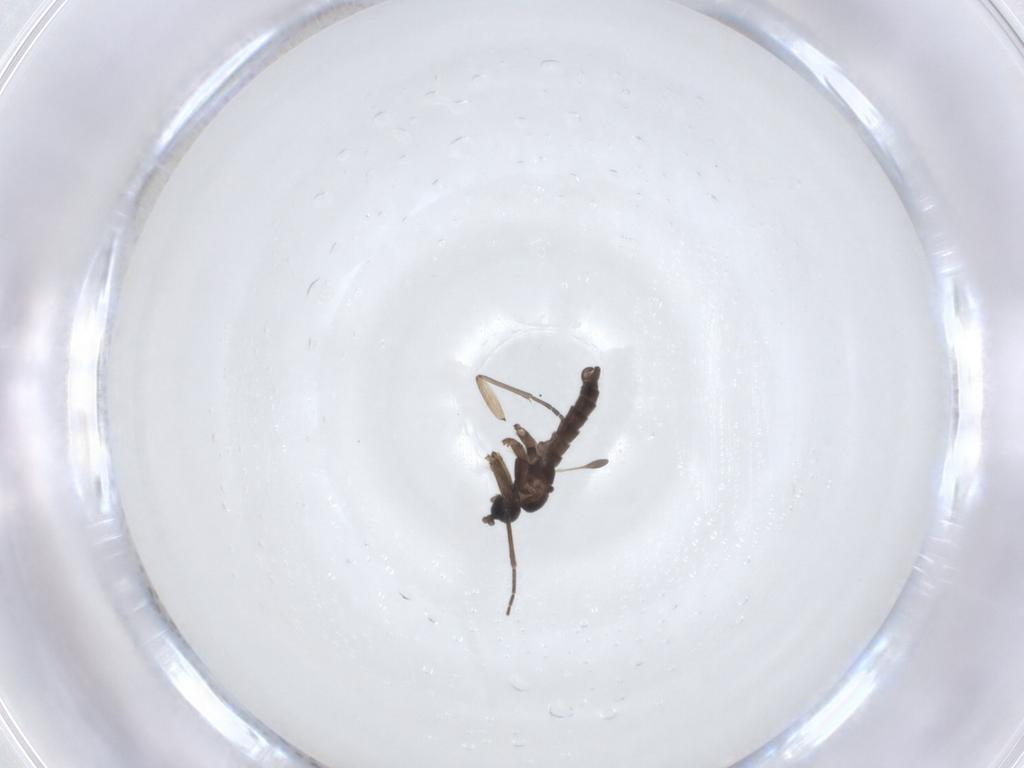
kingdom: Animalia
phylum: Arthropoda
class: Insecta
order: Diptera
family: Sciaridae
